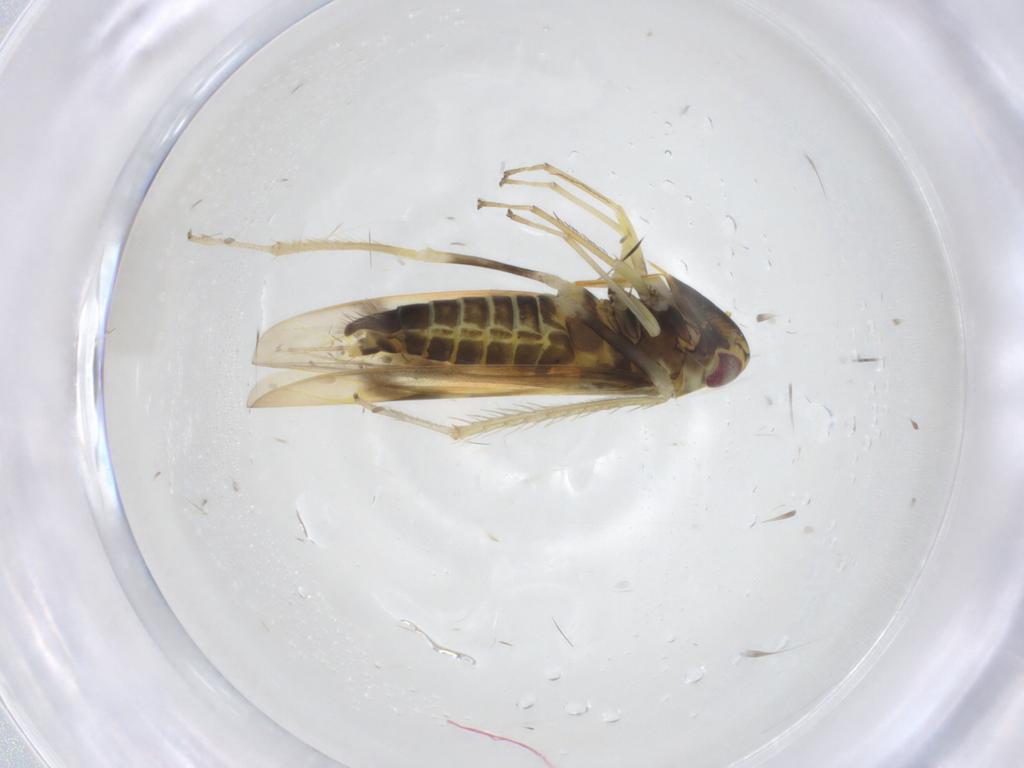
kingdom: Animalia
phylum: Arthropoda
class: Insecta
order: Hemiptera
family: Cicadellidae
